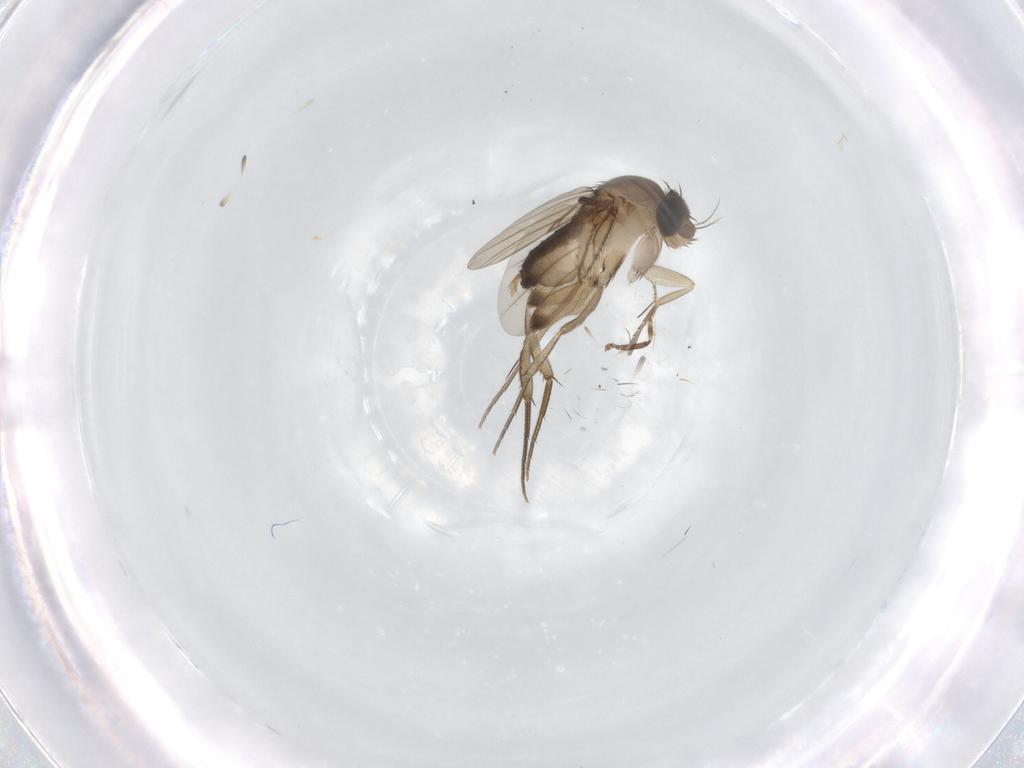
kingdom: Animalia
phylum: Arthropoda
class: Insecta
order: Diptera
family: Phoridae
